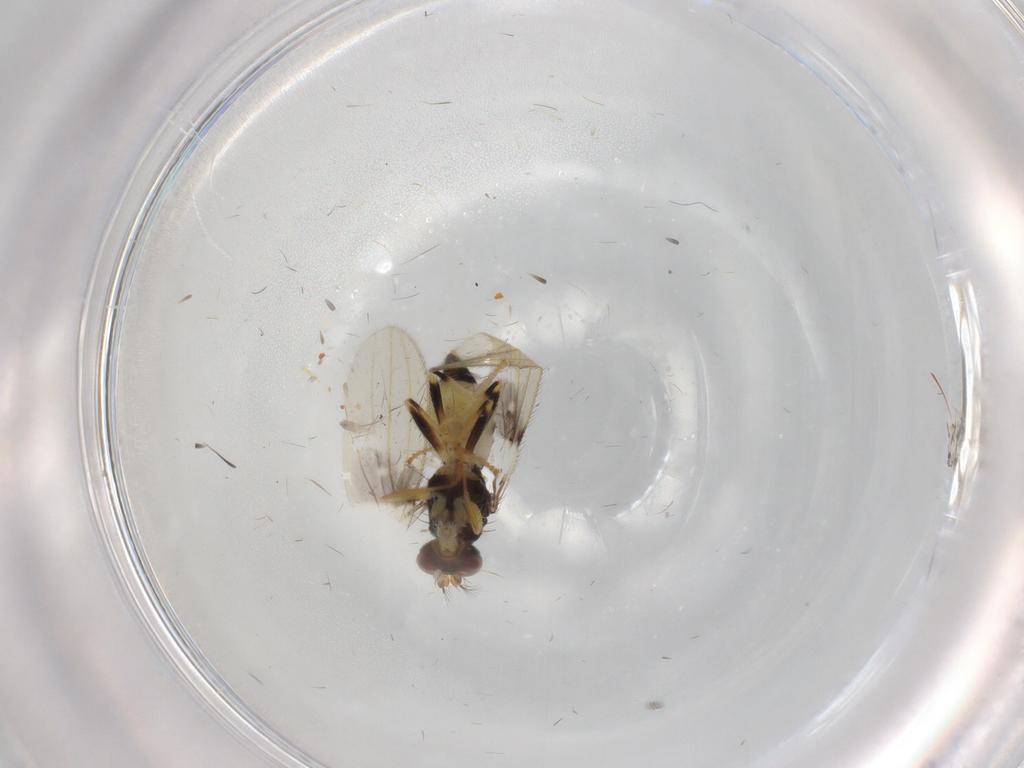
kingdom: Animalia
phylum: Arthropoda
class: Insecta
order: Diptera
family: Periscelididae
